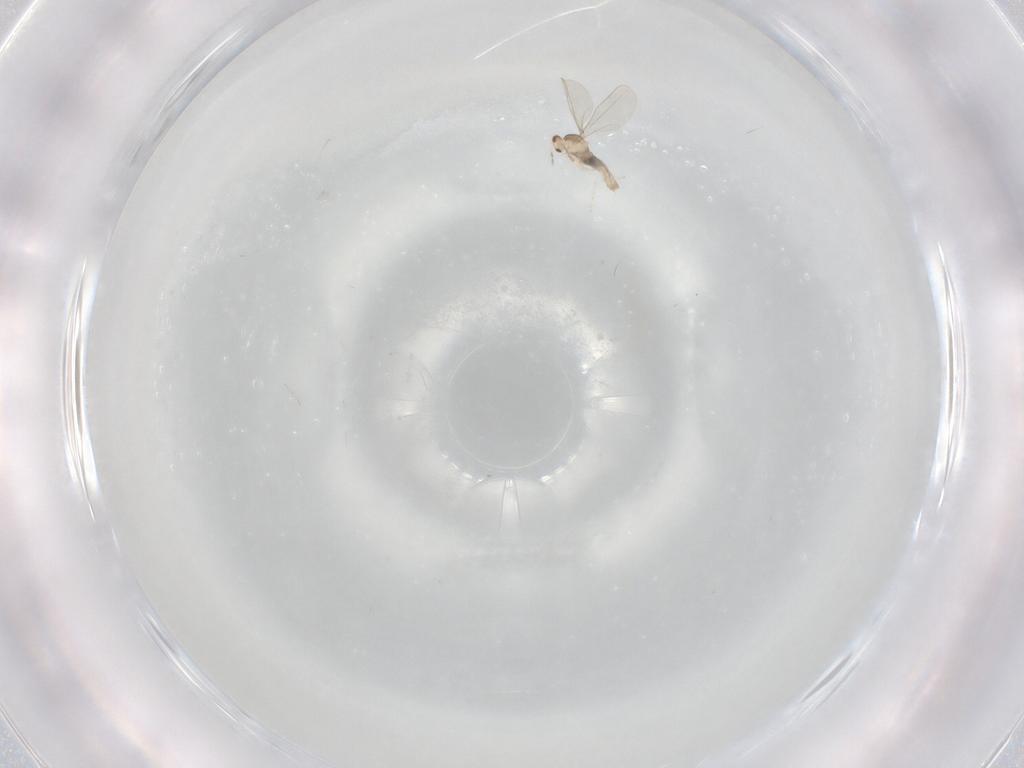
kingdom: Animalia
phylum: Arthropoda
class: Insecta
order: Diptera
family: Cecidomyiidae
